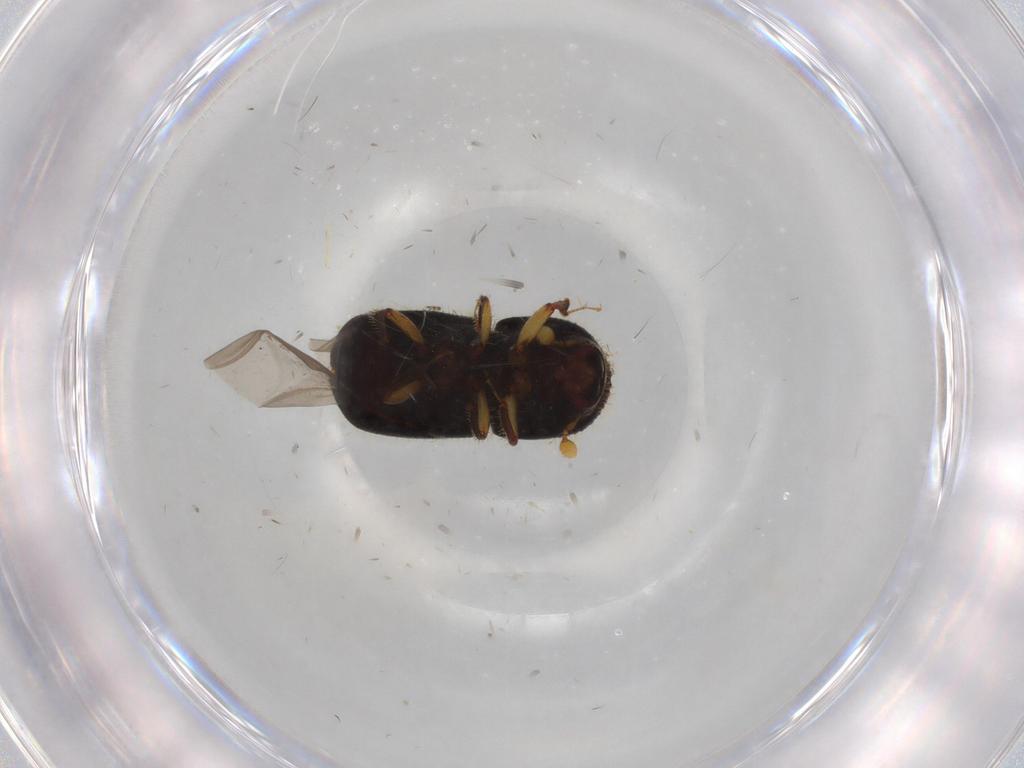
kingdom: Animalia
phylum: Arthropoda
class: Insecta
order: Coleoptera
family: Curculionidae
